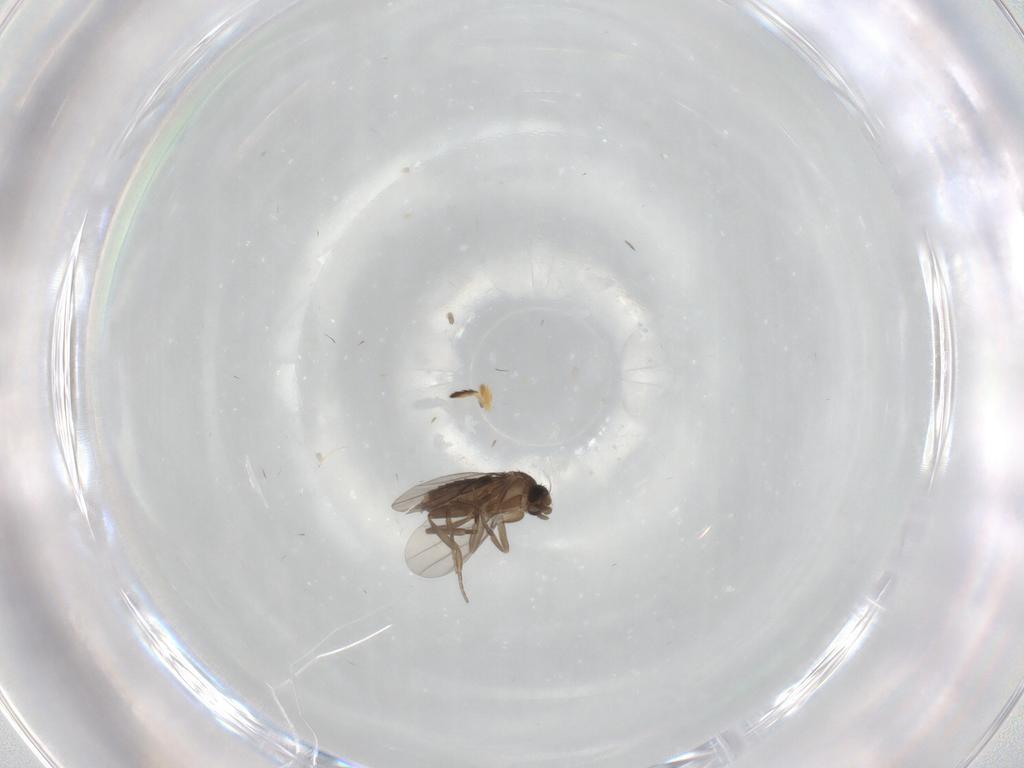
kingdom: Animalia
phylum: Arthropoda
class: Insecta
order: Diptera
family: Phoridae
